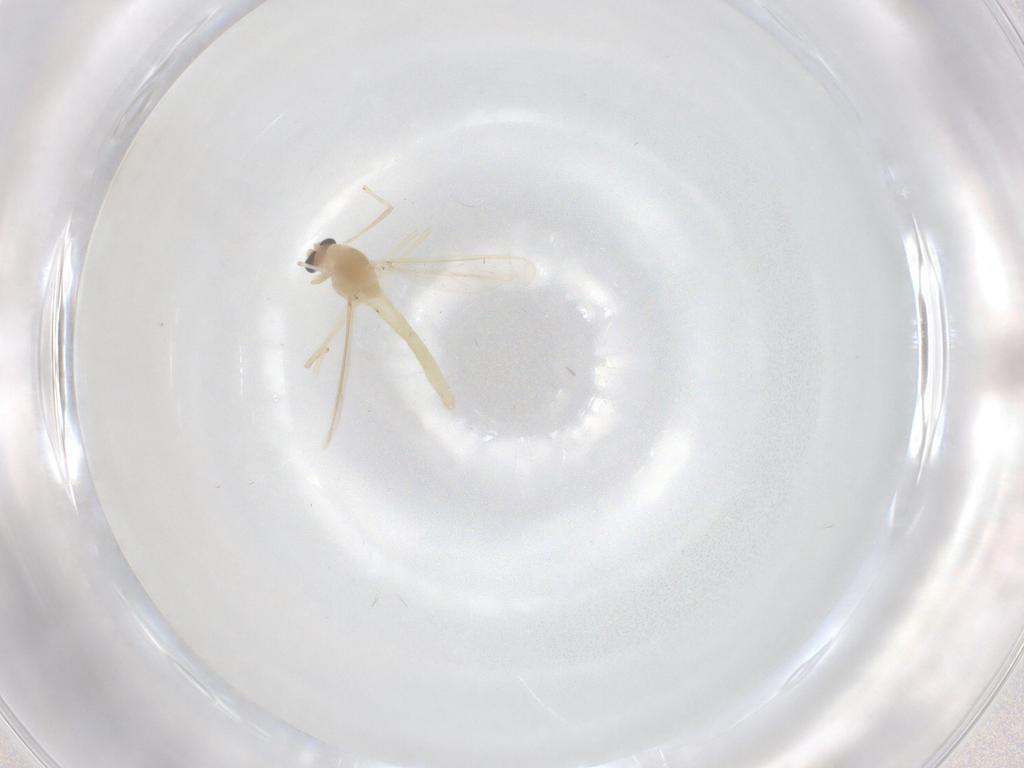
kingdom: Animalia
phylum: Arthropoda
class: Insecta
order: Diptera
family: Chironomidae
